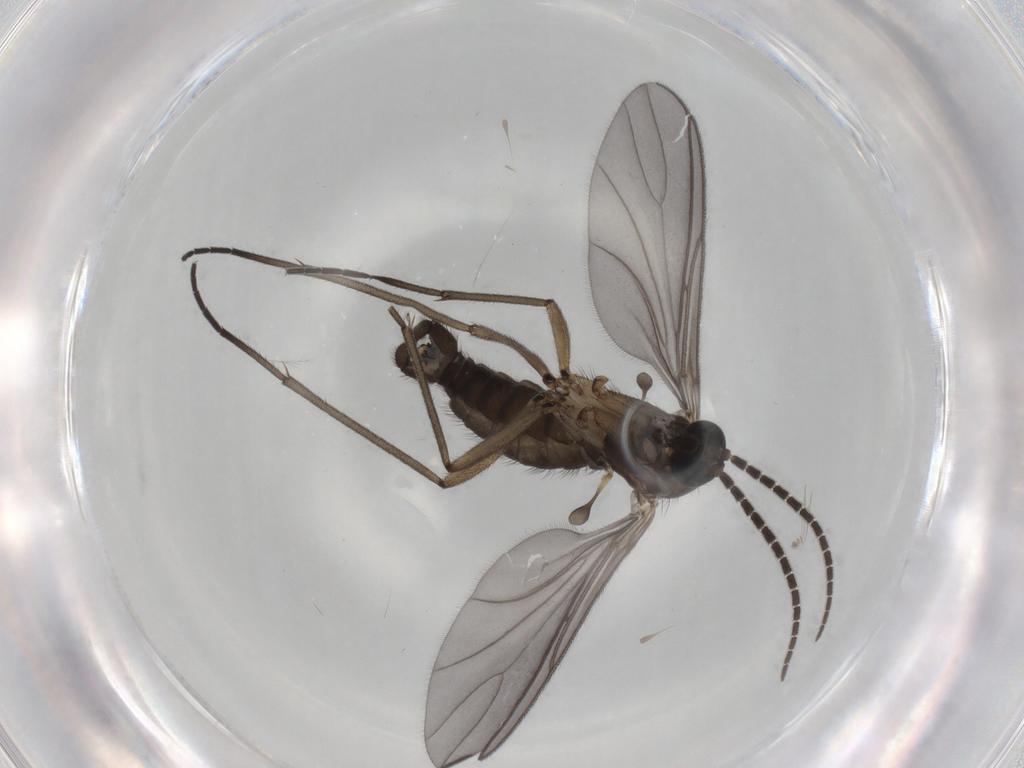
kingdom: Animalia
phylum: Arthropoda
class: Insecta
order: Diptera
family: Sciaridae
